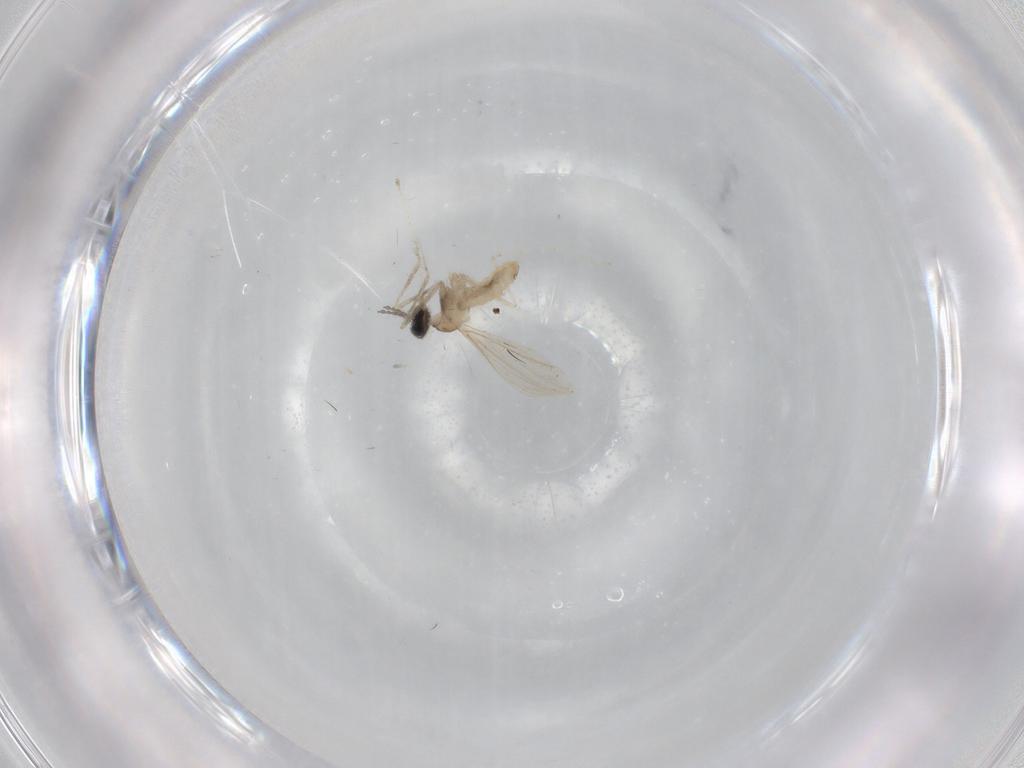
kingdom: Animalia
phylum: Arthropoda
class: Insecta
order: Diptera
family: Cecidomyiidae
